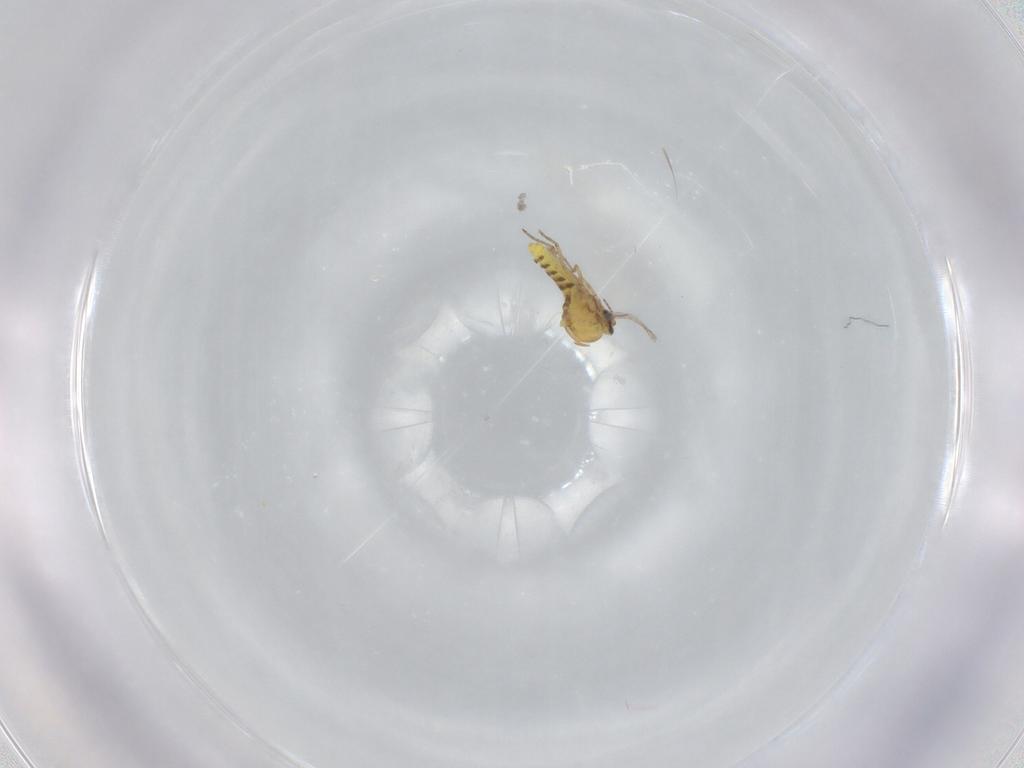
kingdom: Animalia
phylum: Arthropoda
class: Insecta
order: Diptera
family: Ceratopogonidae
